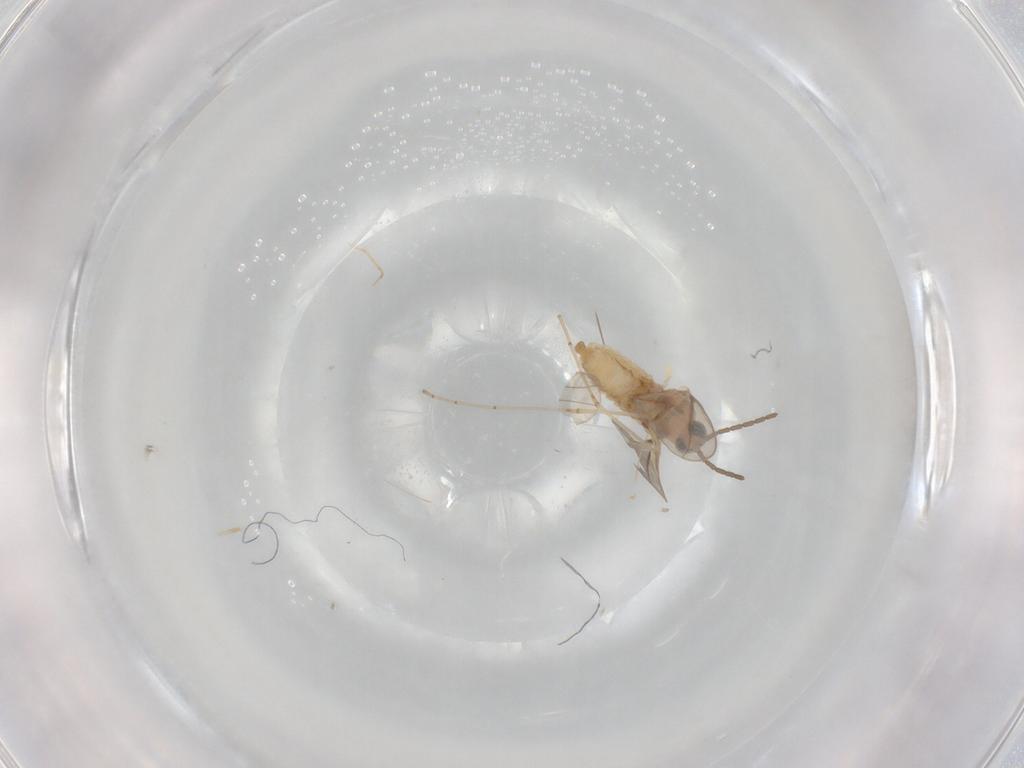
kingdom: Animalia
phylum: Arthropoda
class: Insecta
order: Diptera
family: Cecidomyiidae
